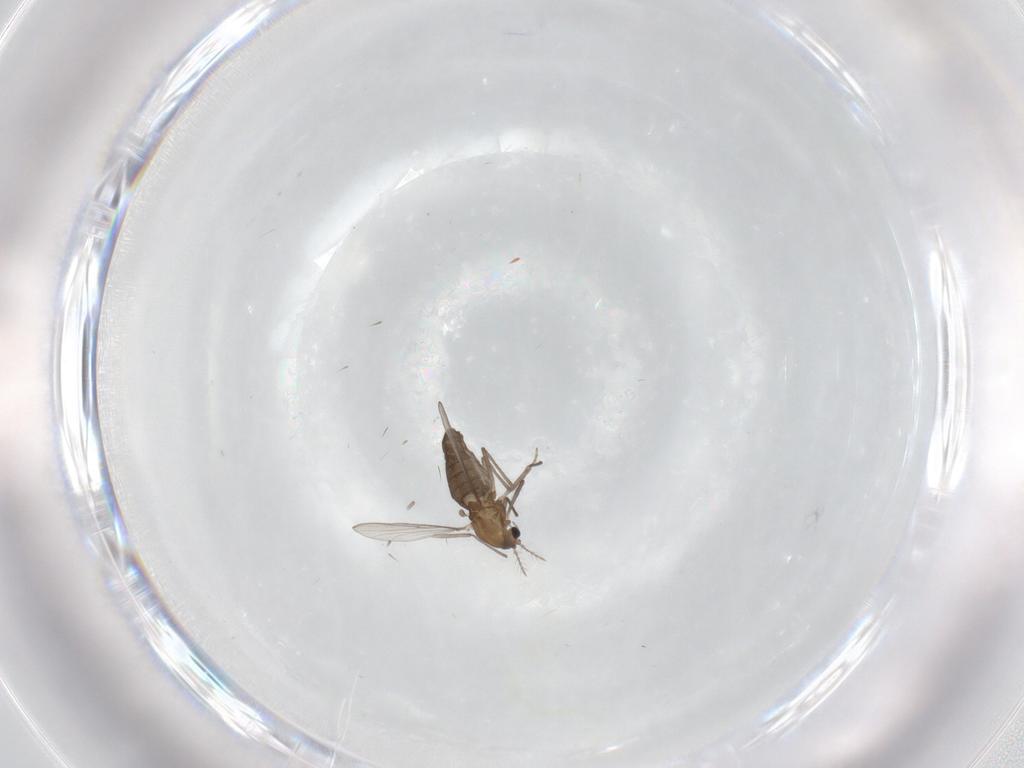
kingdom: Animalia
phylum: Arthropoda
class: Insecta
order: Diptera
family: Chironomidae
